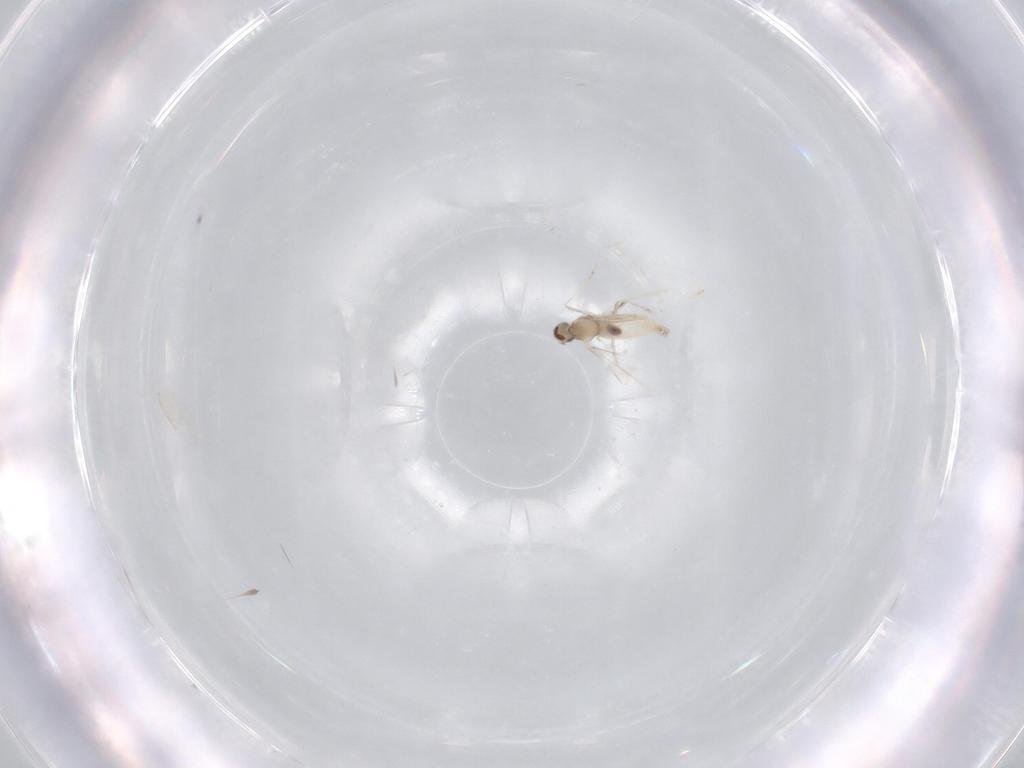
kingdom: Animalia
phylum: Arthropoda
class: Insecta
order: Diptera
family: Cecidomyiidae
